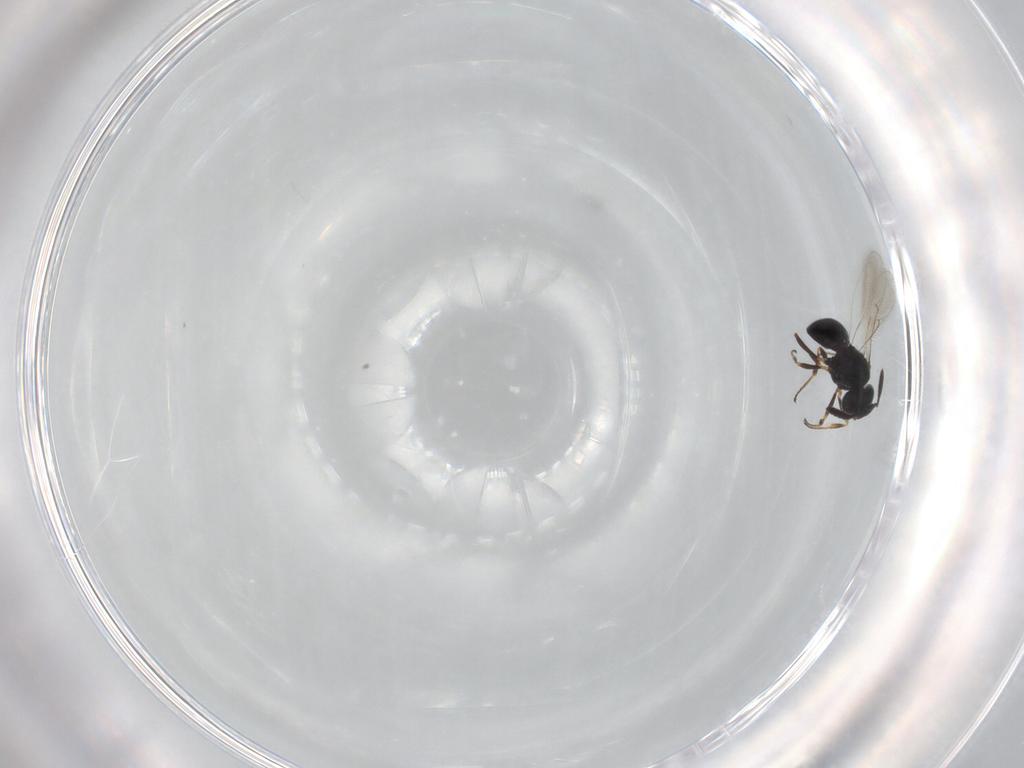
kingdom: Animalia
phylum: Arthropoda
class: Insecta
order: Hymenoptera
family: Scelionidae
